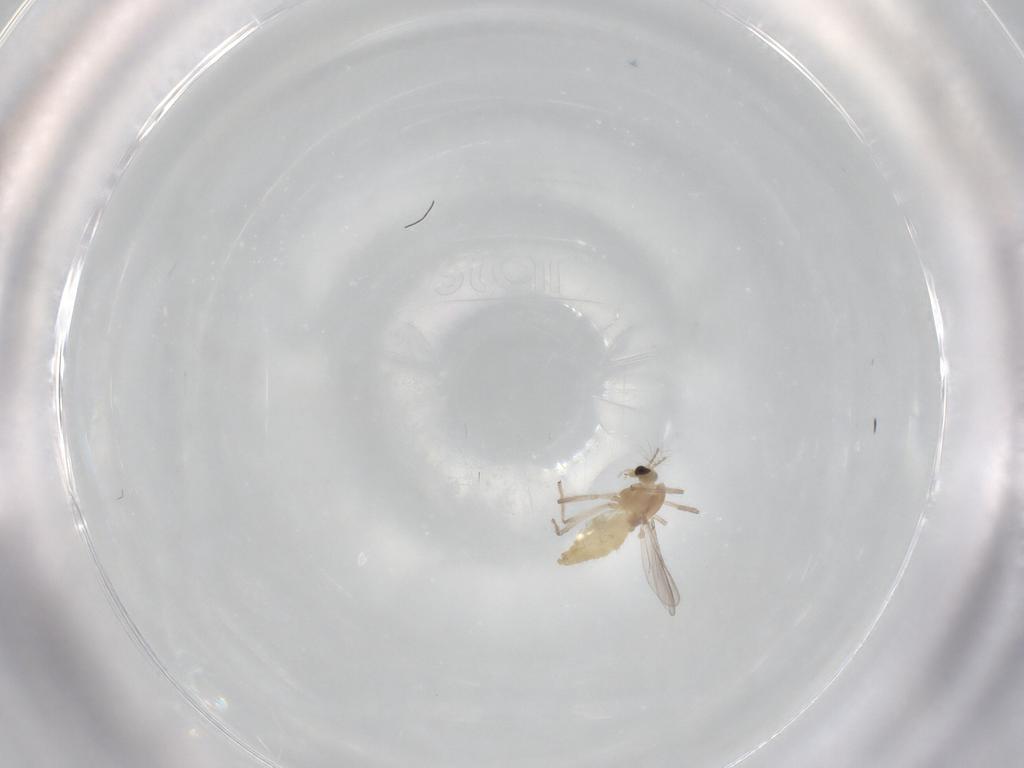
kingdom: Animalia
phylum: Arthropoda
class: Insecta
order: Diptera
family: Chironomidae
